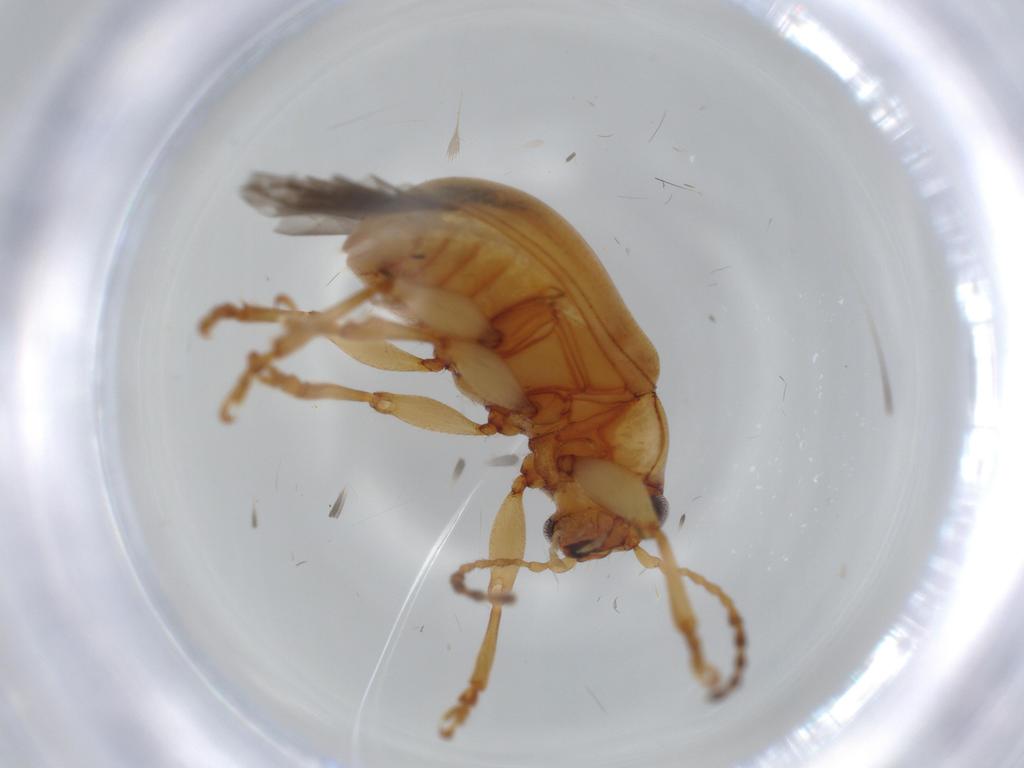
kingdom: Animalia
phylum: Arthropoda
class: Insecta
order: Coleoptera
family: Chrysomelidae
